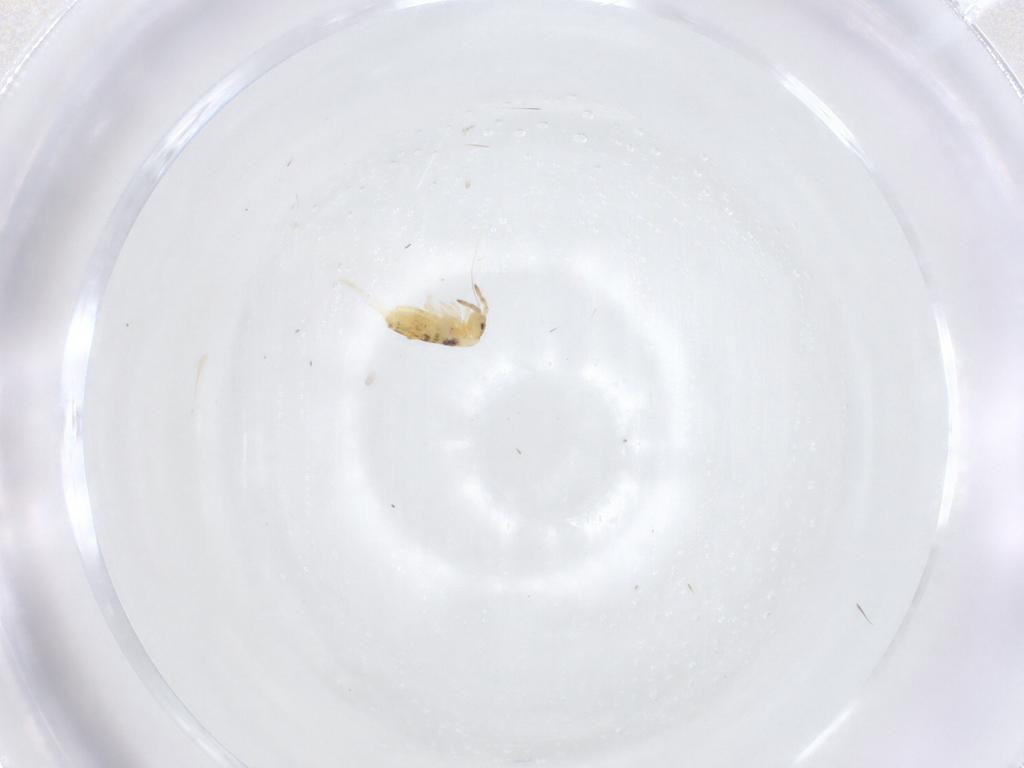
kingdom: Animalia
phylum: Arthropoda
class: Collembola
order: Entomobryomorpha
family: Entomobryidae
